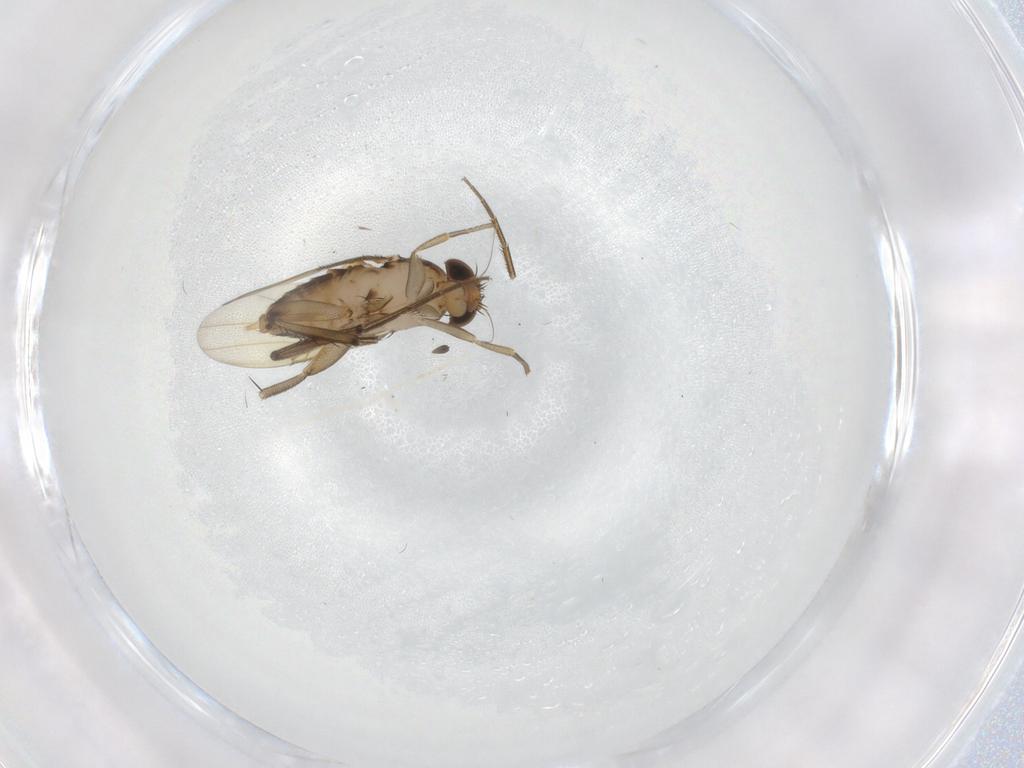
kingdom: Animalia
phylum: Arthropoda
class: Insecta
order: Diptera
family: Phoridae
